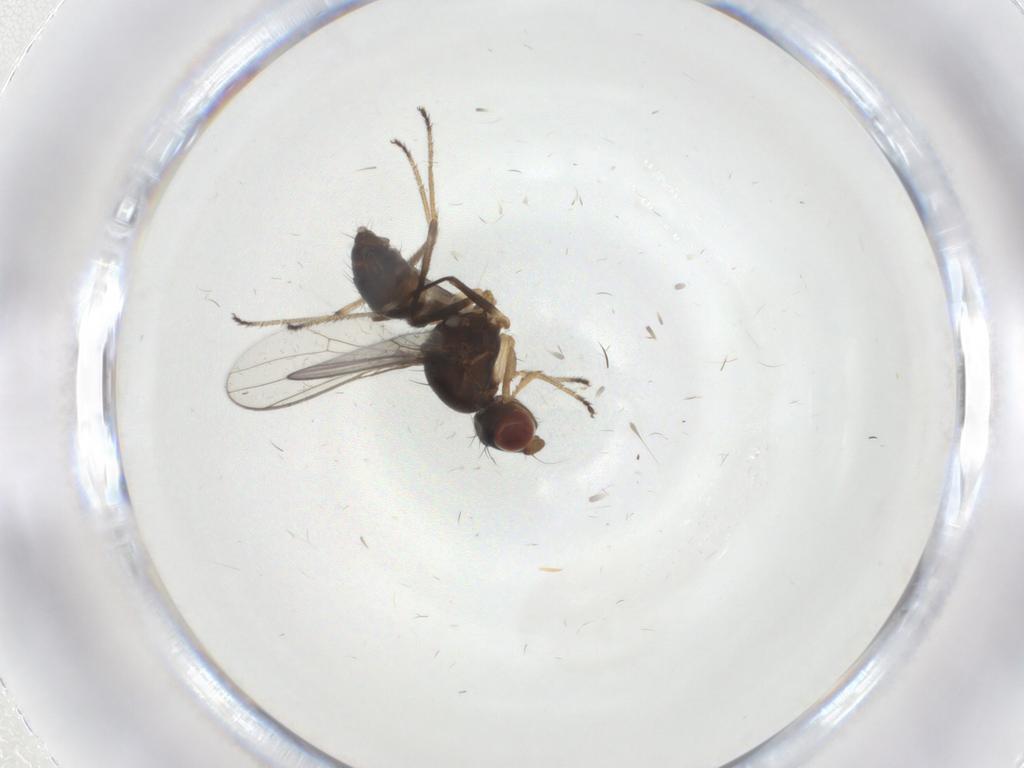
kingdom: Animalia
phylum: Arthropoda
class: Insecta
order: Diptera
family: Sepsidae
